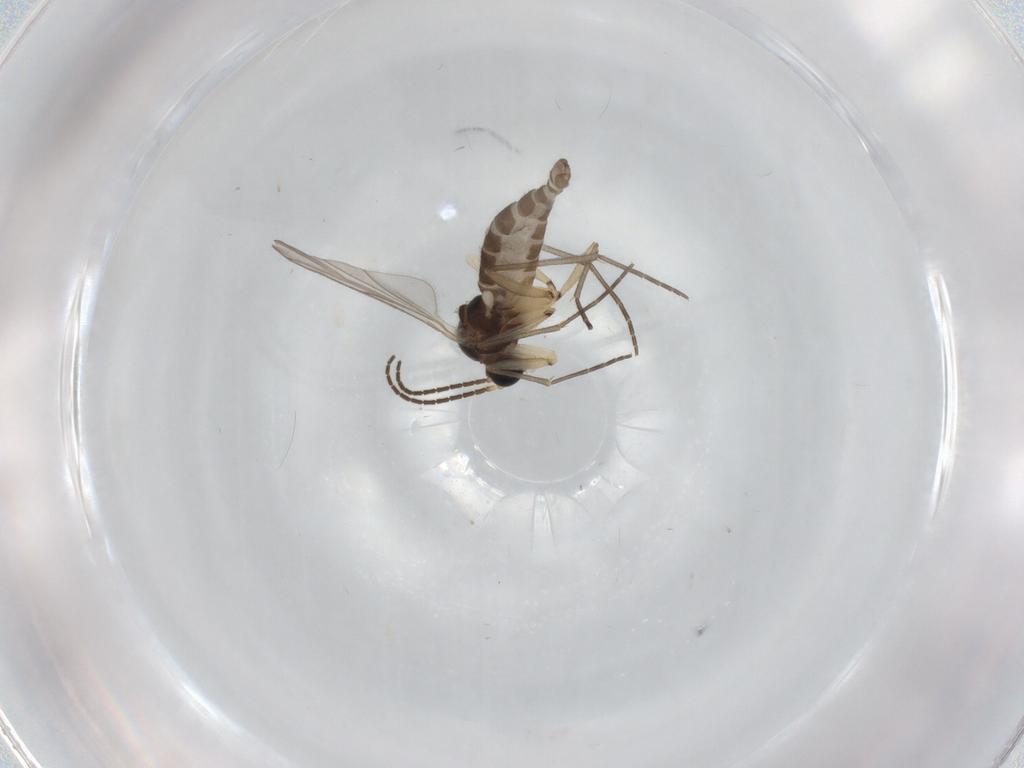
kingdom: Animalia
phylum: Arthropoda
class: Insecta
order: Diptera
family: Sciaridae
